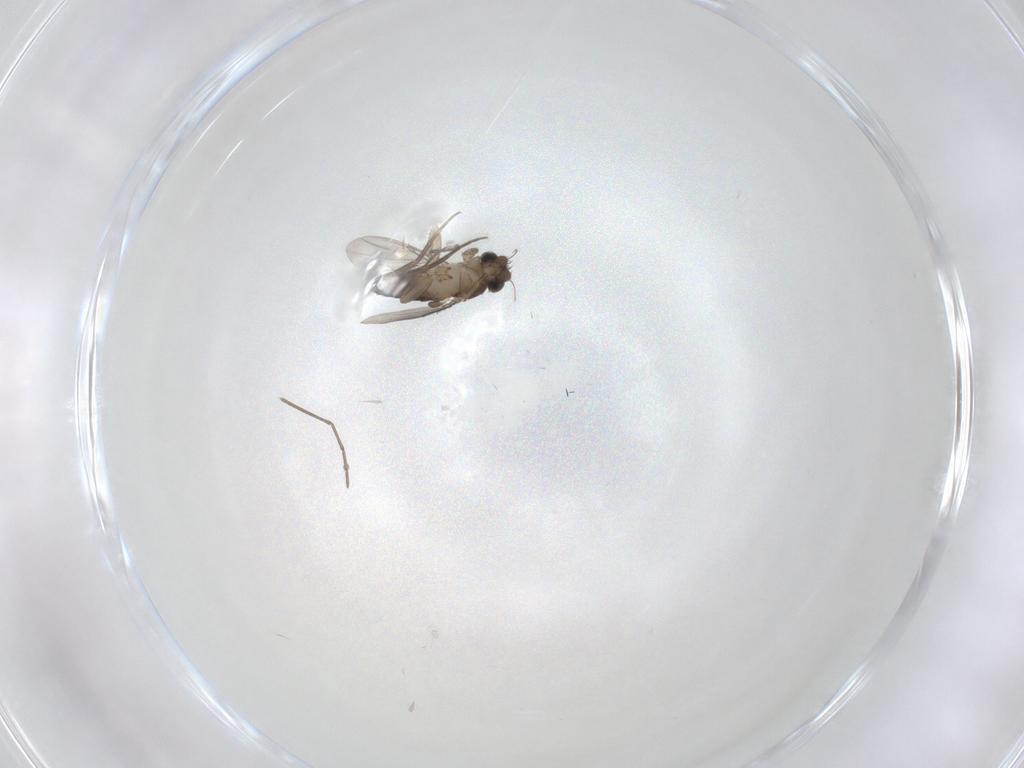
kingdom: Animalia
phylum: Arthropoda
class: Insecta
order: Diptera
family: Phoridae
